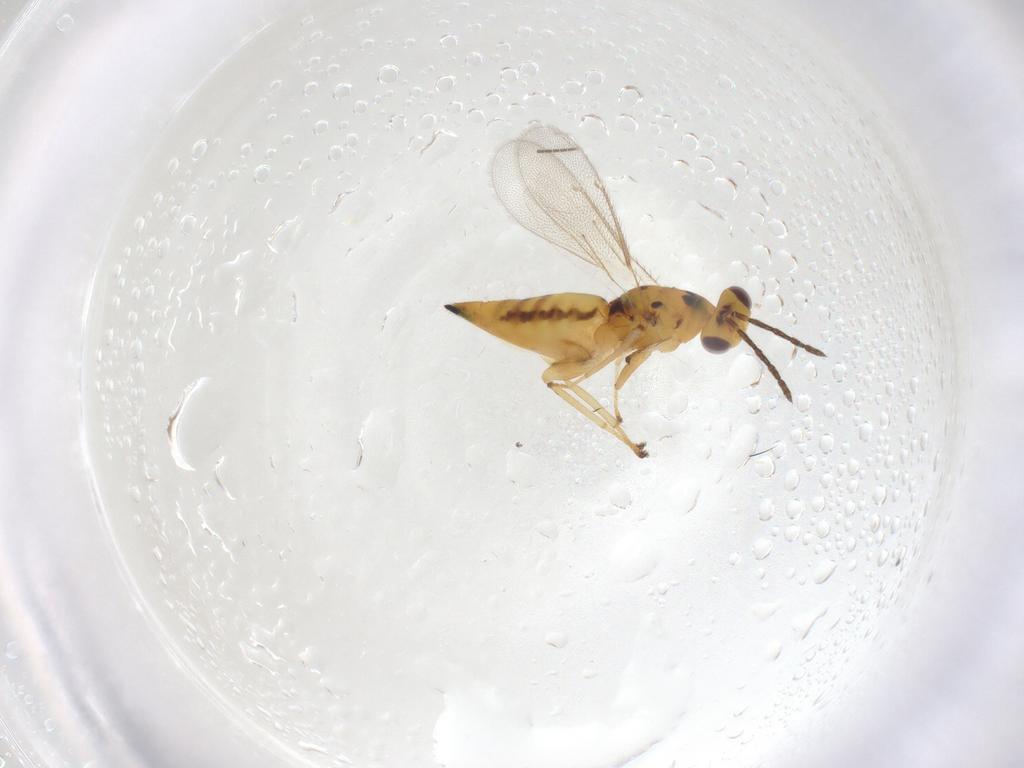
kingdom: Animalia
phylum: Arthropoda
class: Insecta
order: Hymenoptera
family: Eulophidae
